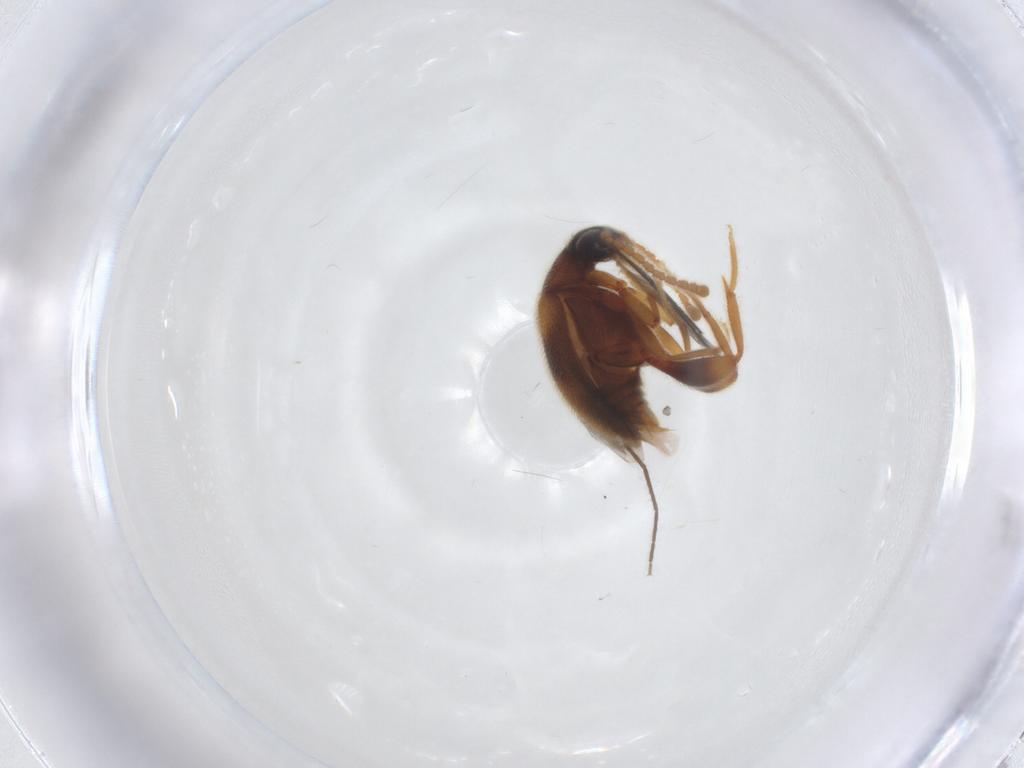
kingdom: Animalia
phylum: Arthropoda
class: Insecta
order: Coleoptera
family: Aderidae
